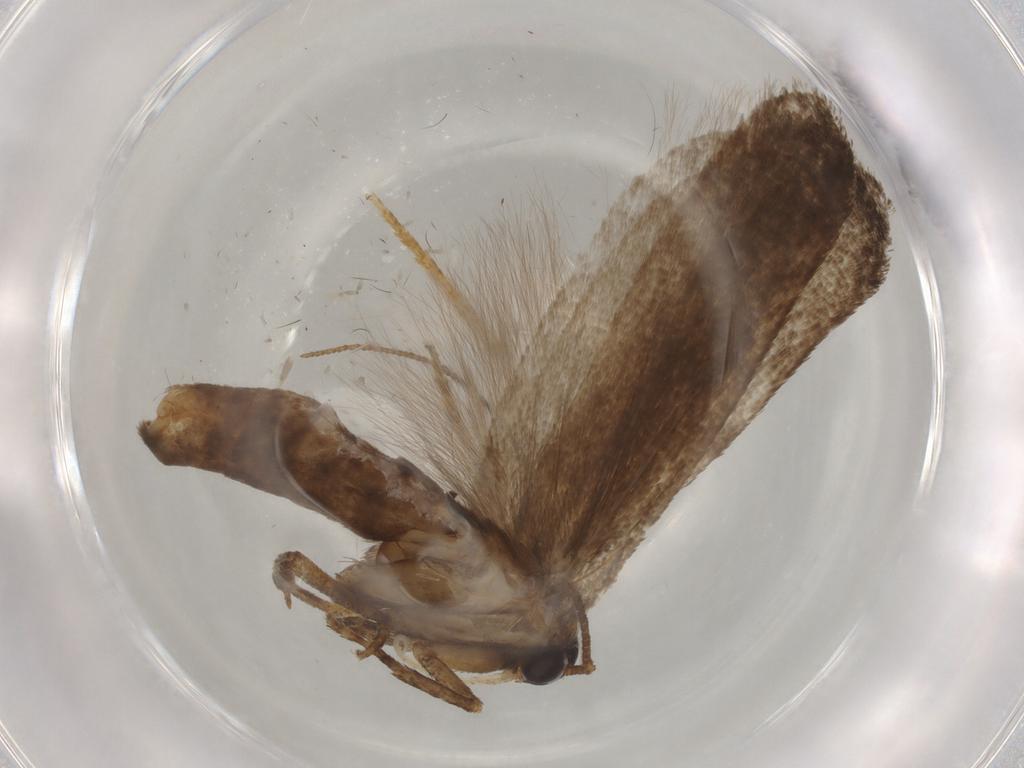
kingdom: Animalia
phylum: Arthropoda
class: Insecta
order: Lepidoptera
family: Gelechiidae
